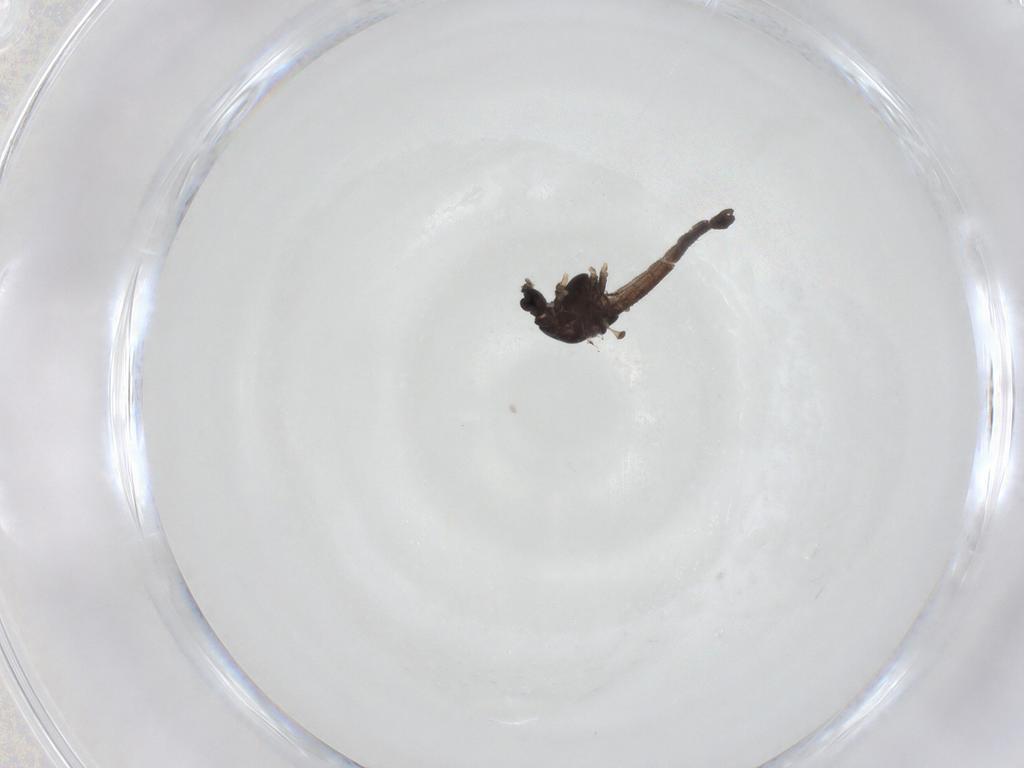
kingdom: Animalia
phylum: Arthropoda
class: Insecta
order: Diptera
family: Chironomidae
